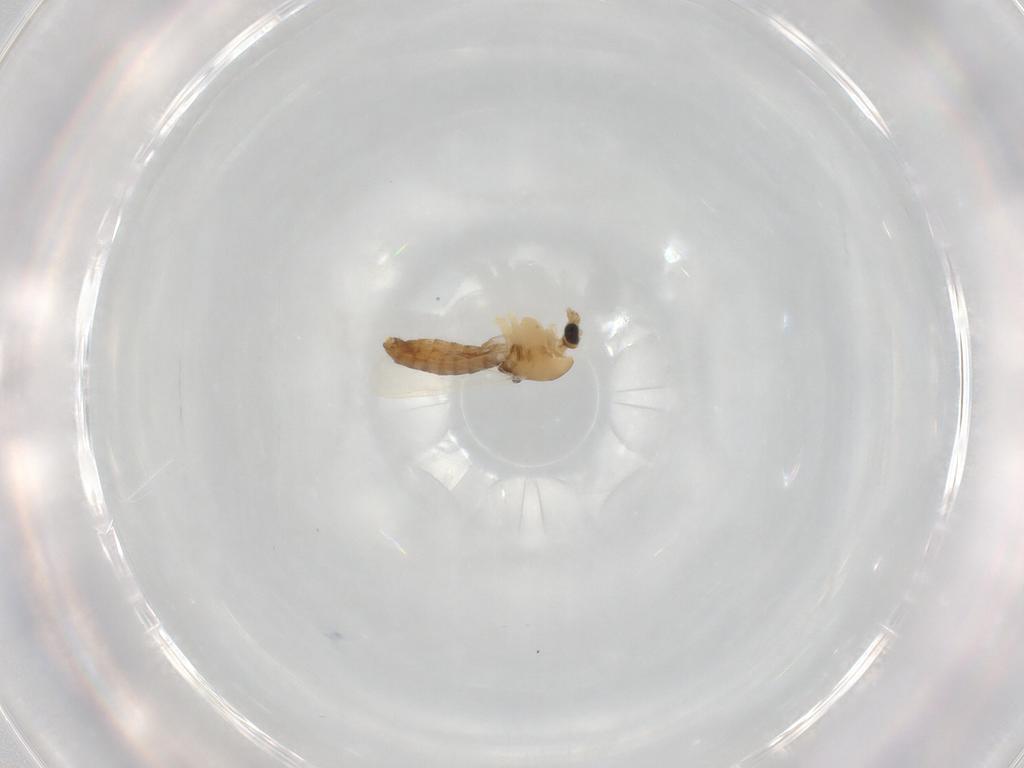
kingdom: Animalia
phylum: Arthropoda
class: Insecta
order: Diptera
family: Chironomidae
